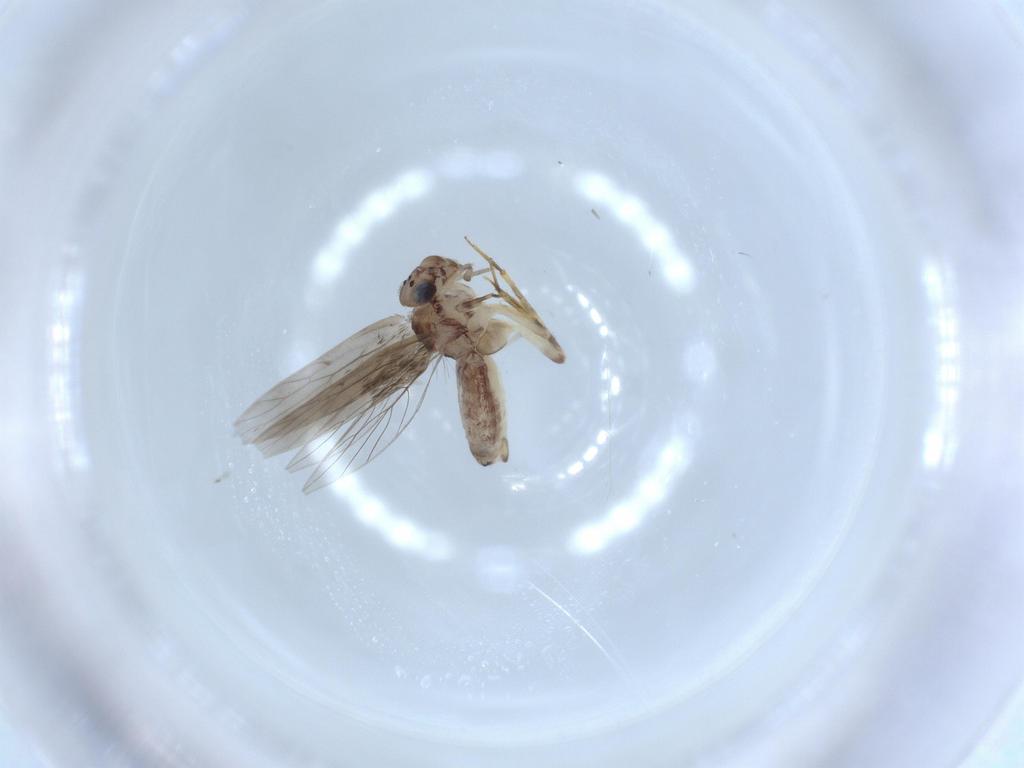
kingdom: Animalia
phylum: Arthropoda
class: Insecta
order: Psocodea
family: Lepidopsocidae
